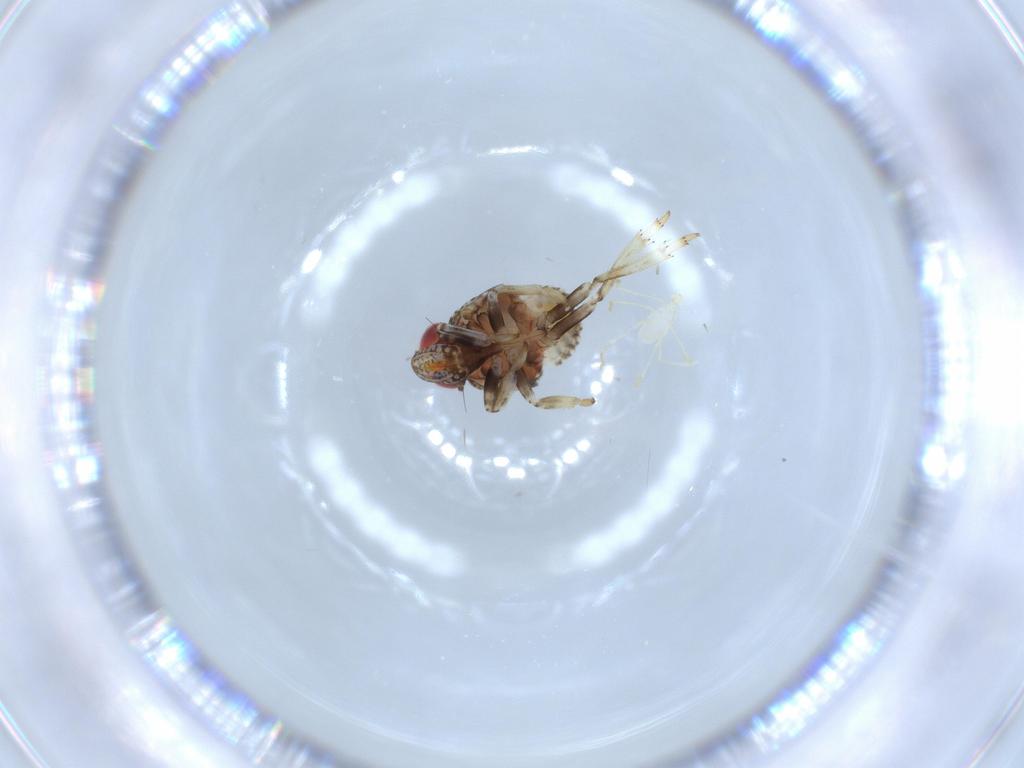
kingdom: Animalia
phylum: Arthropoda
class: Insecta
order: Hemiptera
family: Issidae
